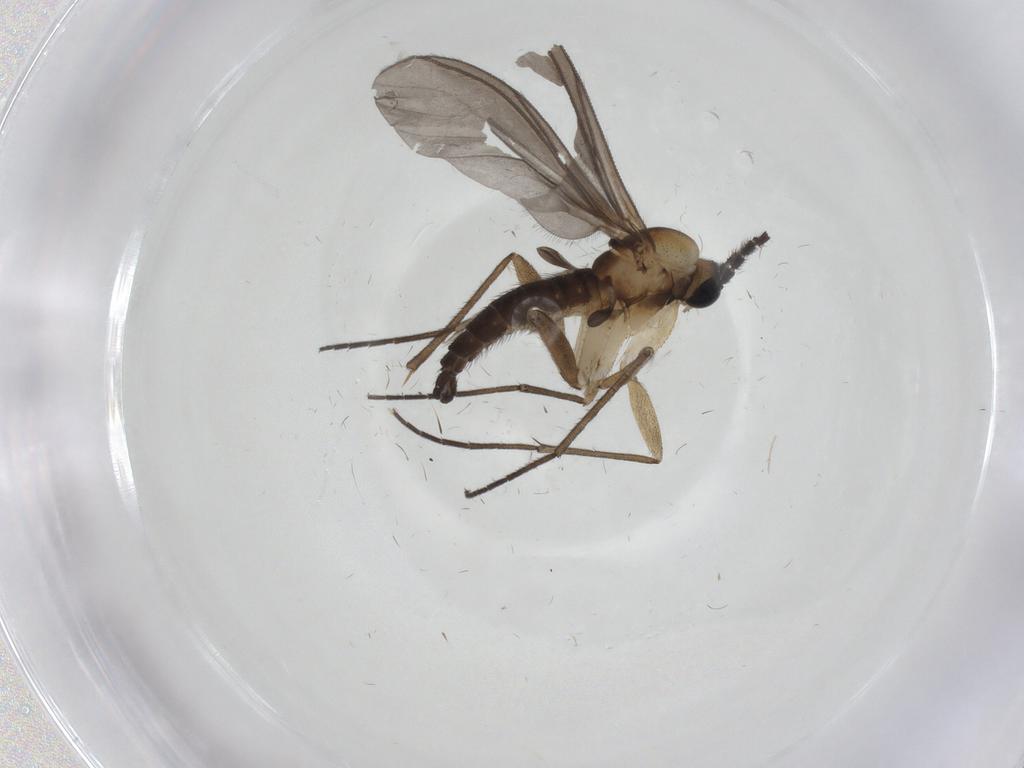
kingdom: Animalia
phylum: Arthropoda
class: Insecta
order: Diptera
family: Sciaridae
